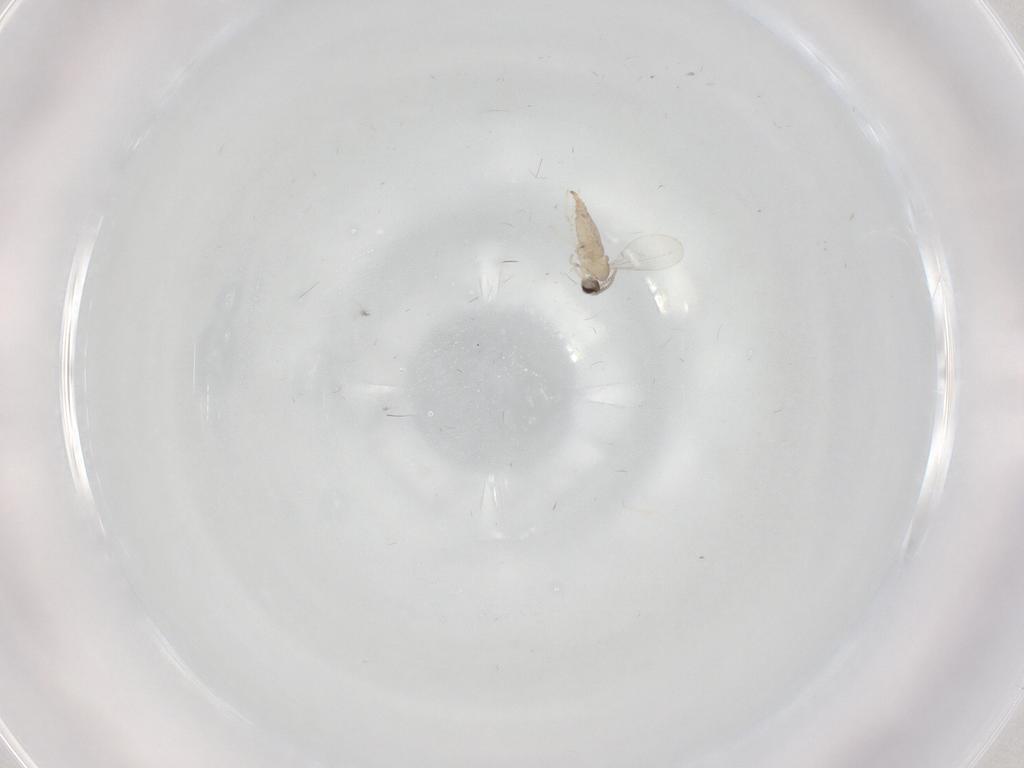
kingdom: Animalia
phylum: Arthropoda
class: Insecta
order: Diptera
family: Cecidomyiidae
